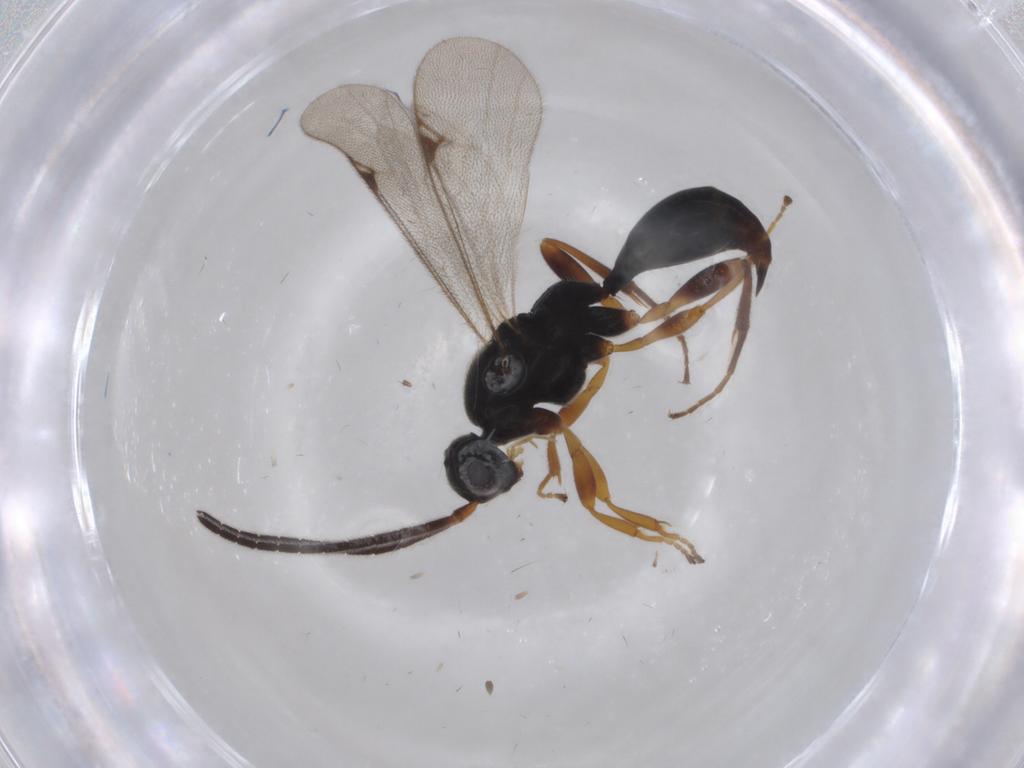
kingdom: Animalia
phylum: Arthropoda
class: Insecta
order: Hymenoptera
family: Proctotrupidae
